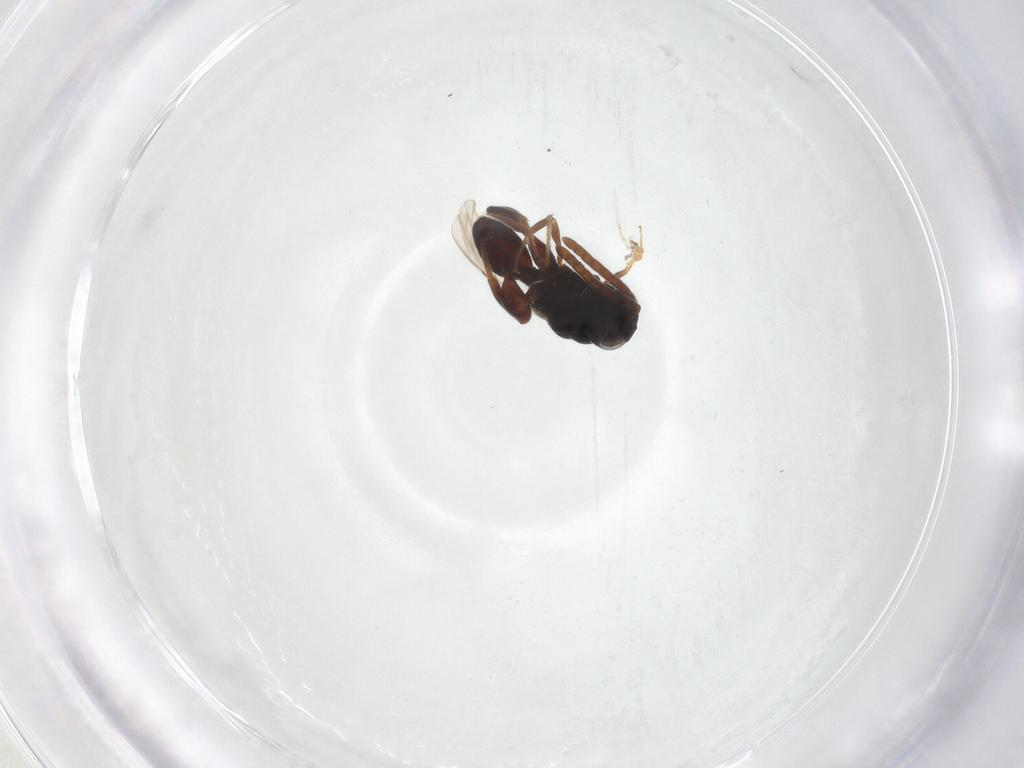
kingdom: Animalia
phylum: Arthropoda
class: Insecta
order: Hymenoptera
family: Aphelinidae
